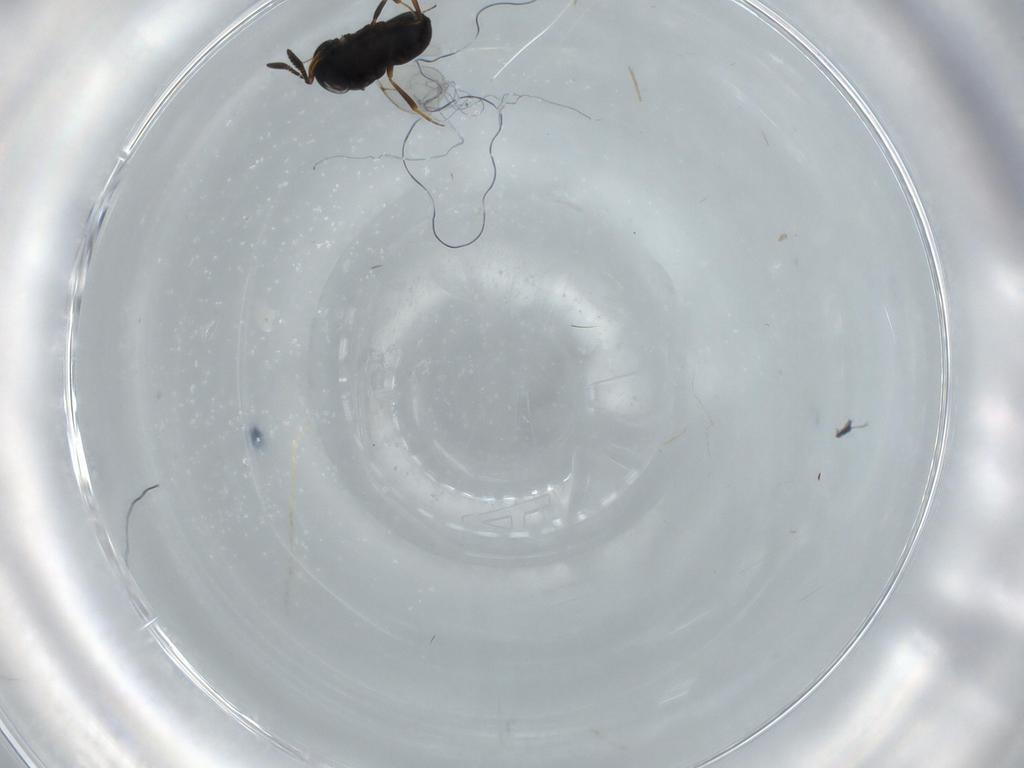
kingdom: Animalia
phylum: Arthropoda
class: Insecta
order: Hymenoptera
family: Scelionidae
